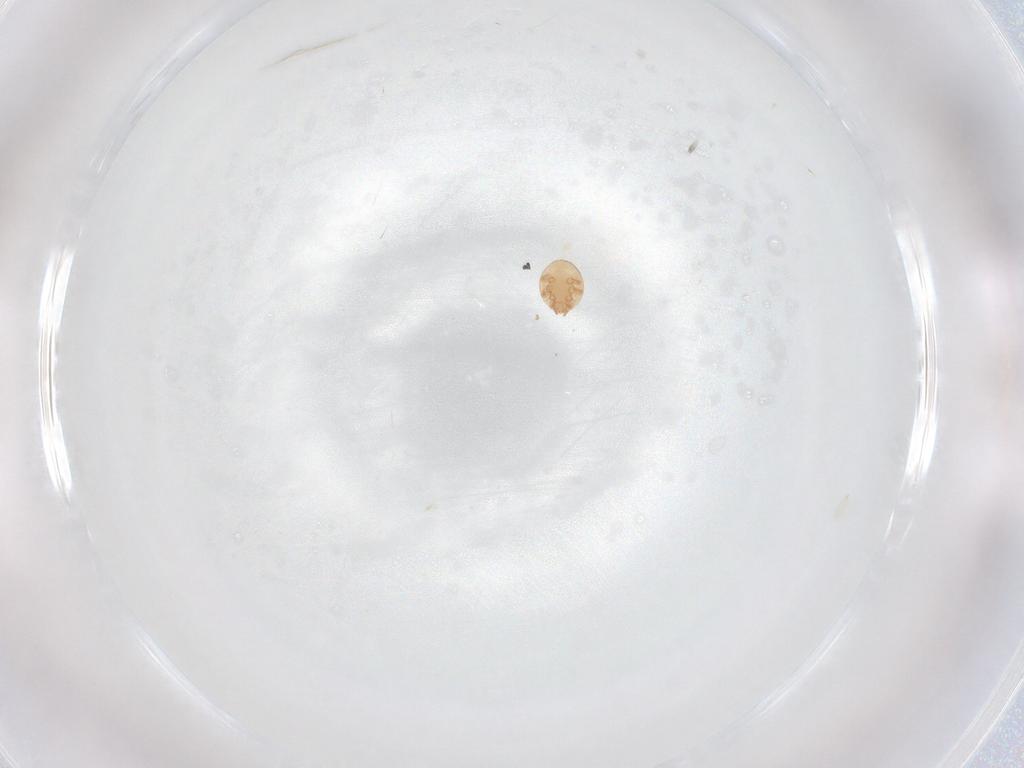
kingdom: Animalia
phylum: Arthropoda
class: Arachnida
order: Mesostigmata
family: Trematuridae
